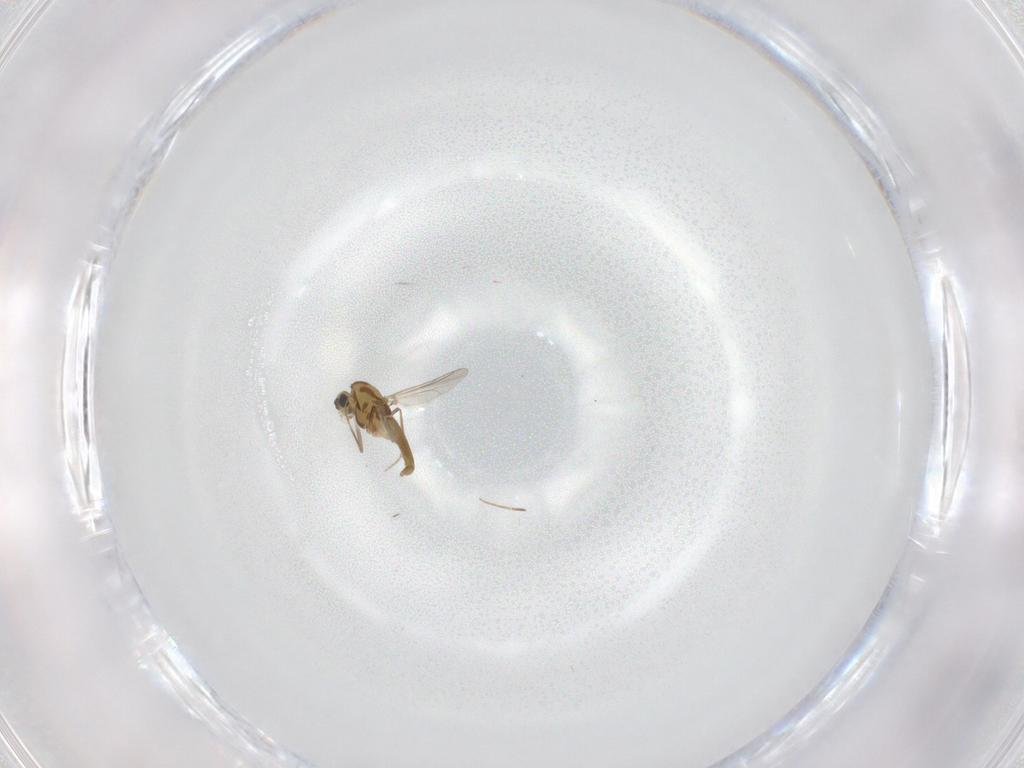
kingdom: Animalia
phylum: Arthropoda
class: Insecta
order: Diptera
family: Chironomidae
